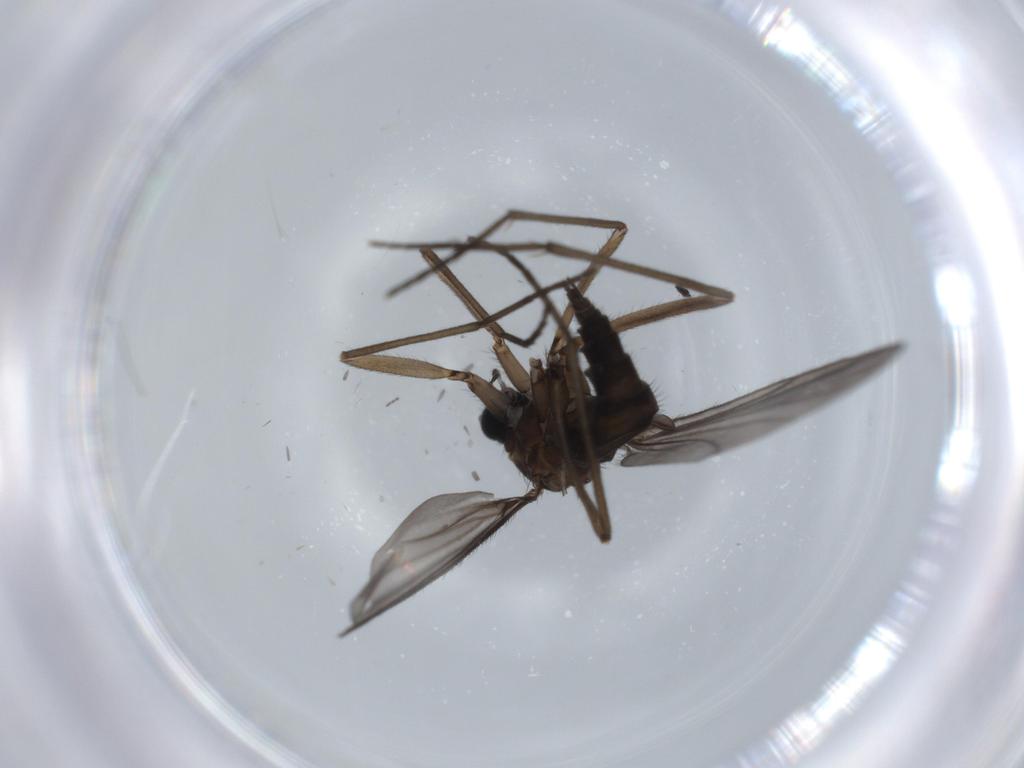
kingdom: Animalia
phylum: Arthropoda
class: Insecta
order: Diptera
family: Sciaridae
